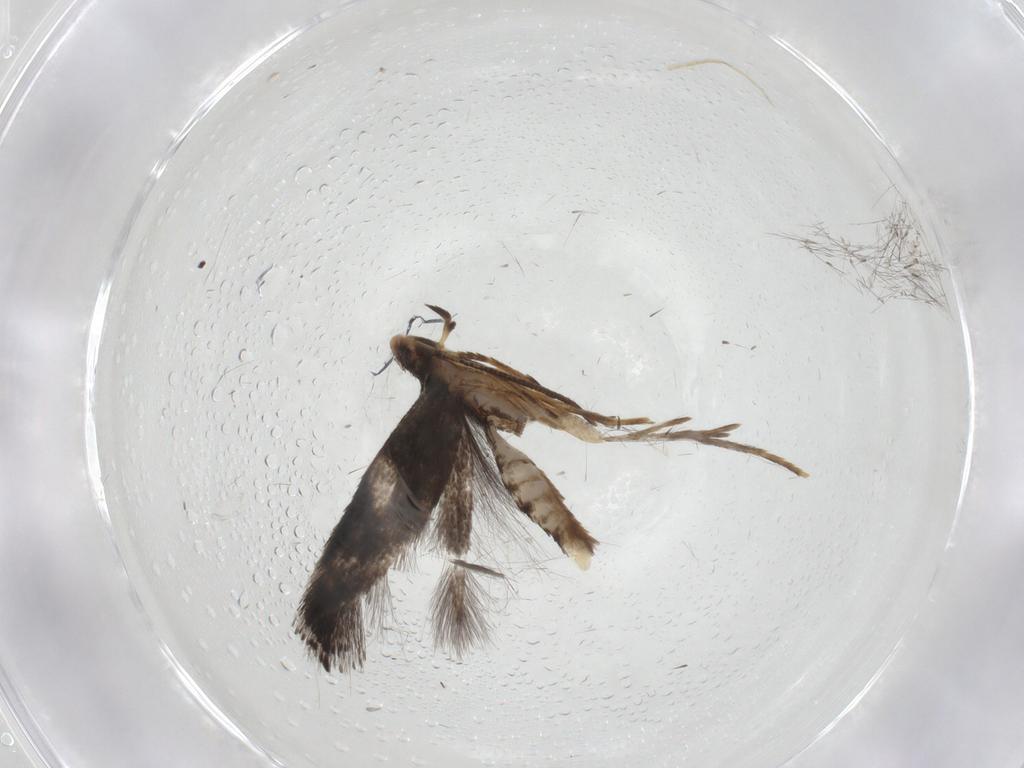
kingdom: Animalia
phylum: Arthropoda
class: Insecta
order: Lepidoptera
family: Gelechiidae
